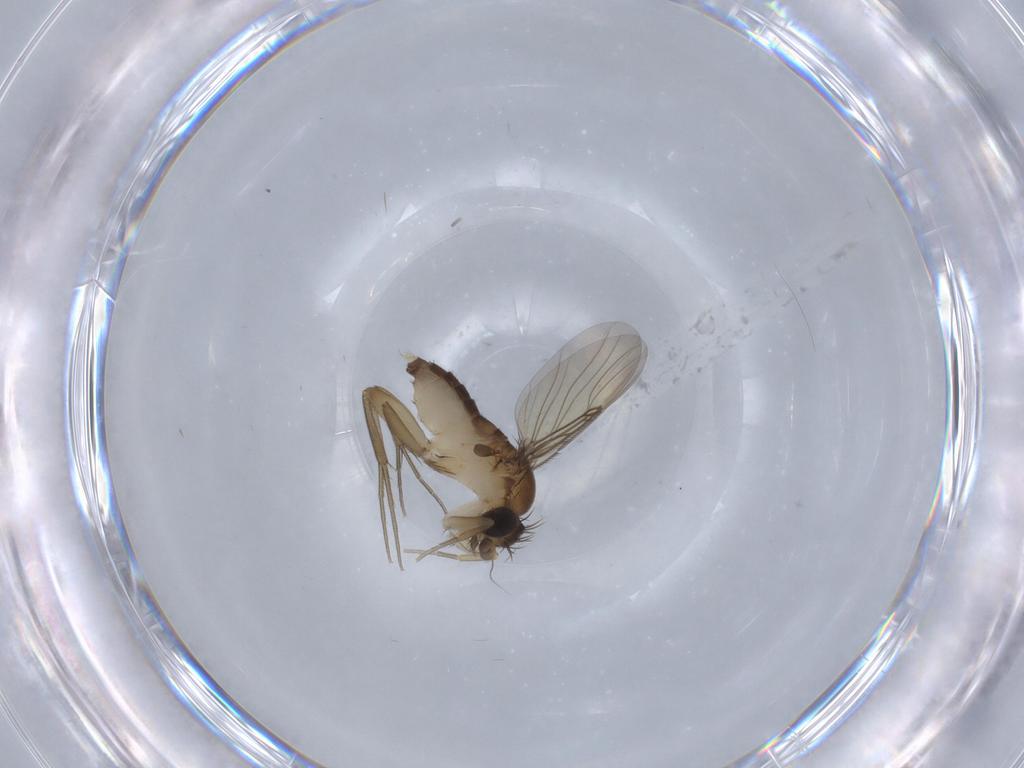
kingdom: Animalia
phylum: Arthropoda
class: Insecta
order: Diptera
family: Phoridae
